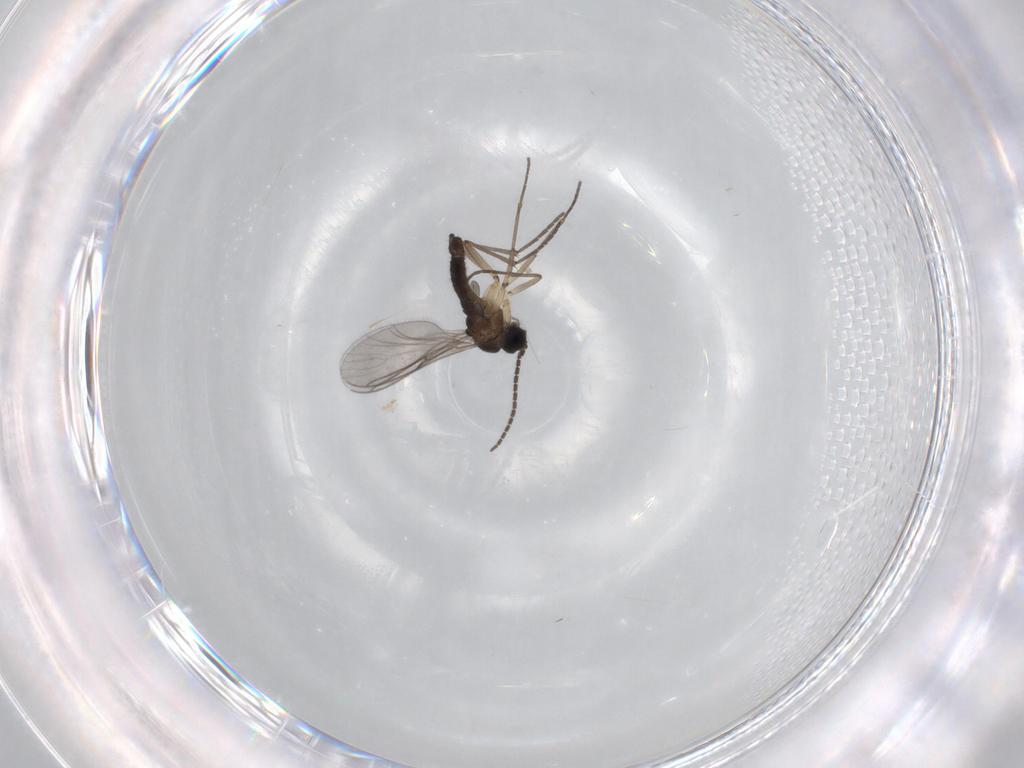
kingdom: Animalia
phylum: Arthropoda
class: Insecta
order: Diptera
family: Sciaridae
